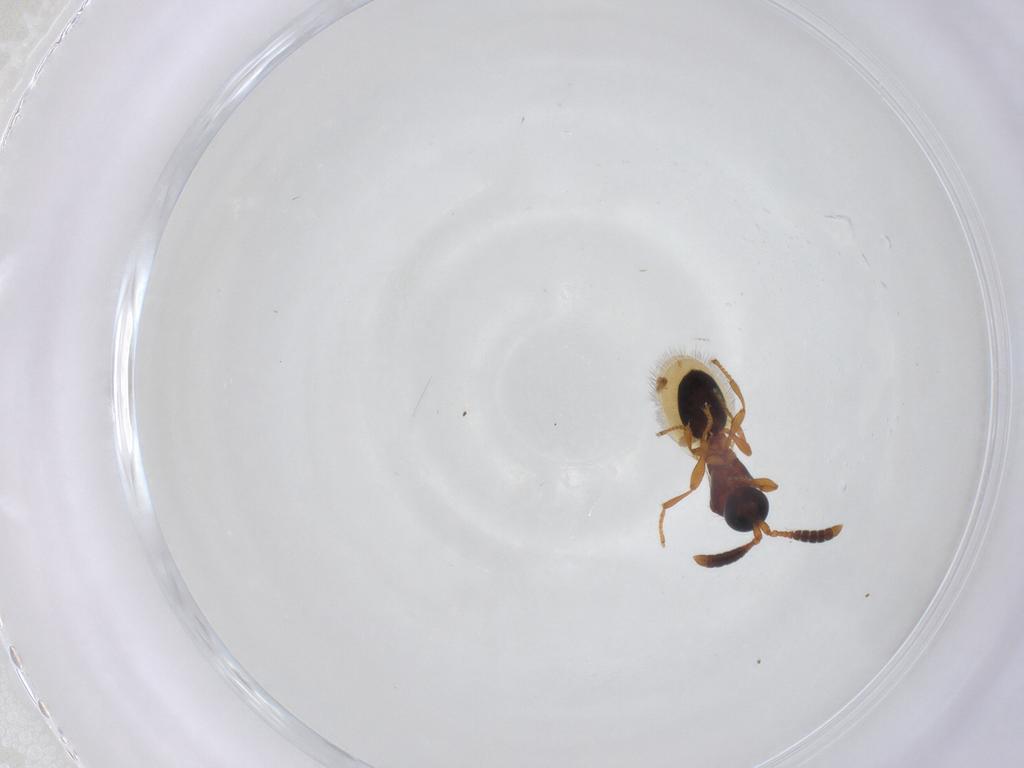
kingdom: Animalia
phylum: Arthropoda
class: Insecta
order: Hymenoptera
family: Diapriidae
